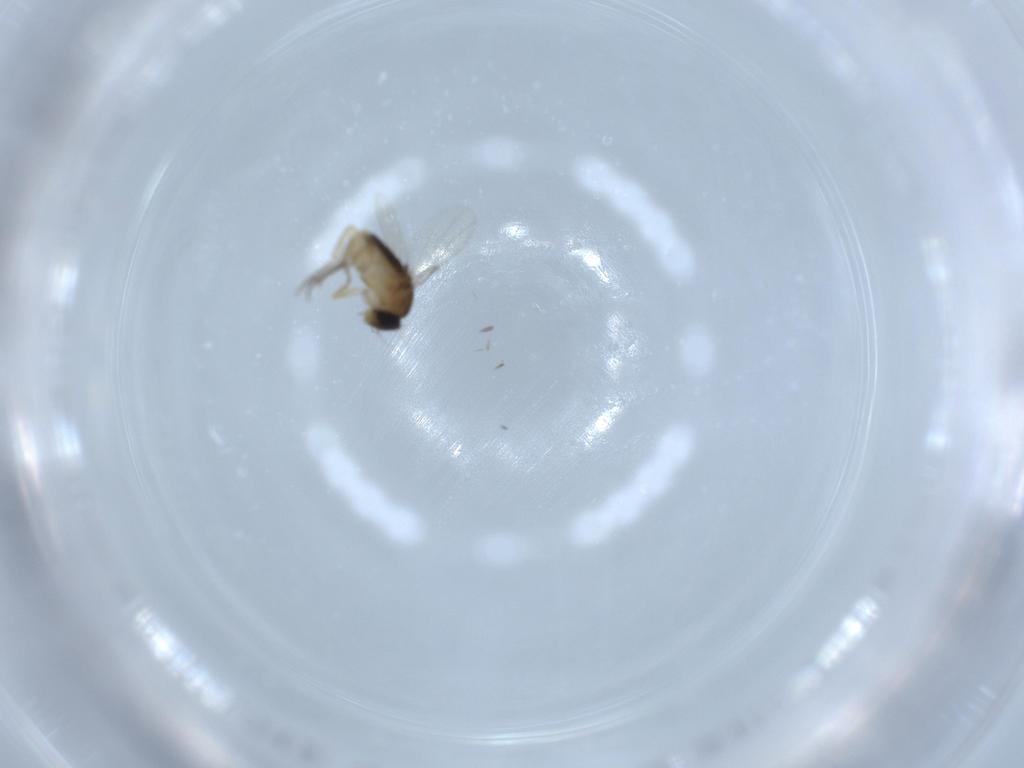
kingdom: Animalia
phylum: Arthropoda
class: Insecta
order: Diptera
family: Phoridae
